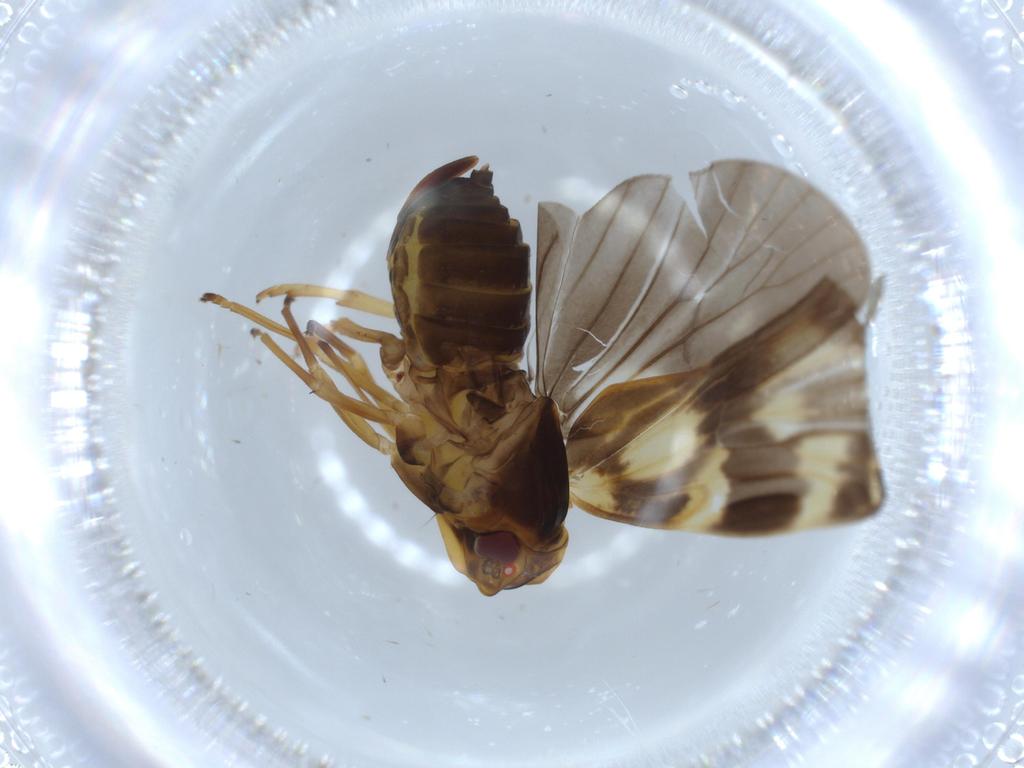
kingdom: Animalia
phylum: Arthropoda
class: Insecta
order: Hemiptera
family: Cixiidae
